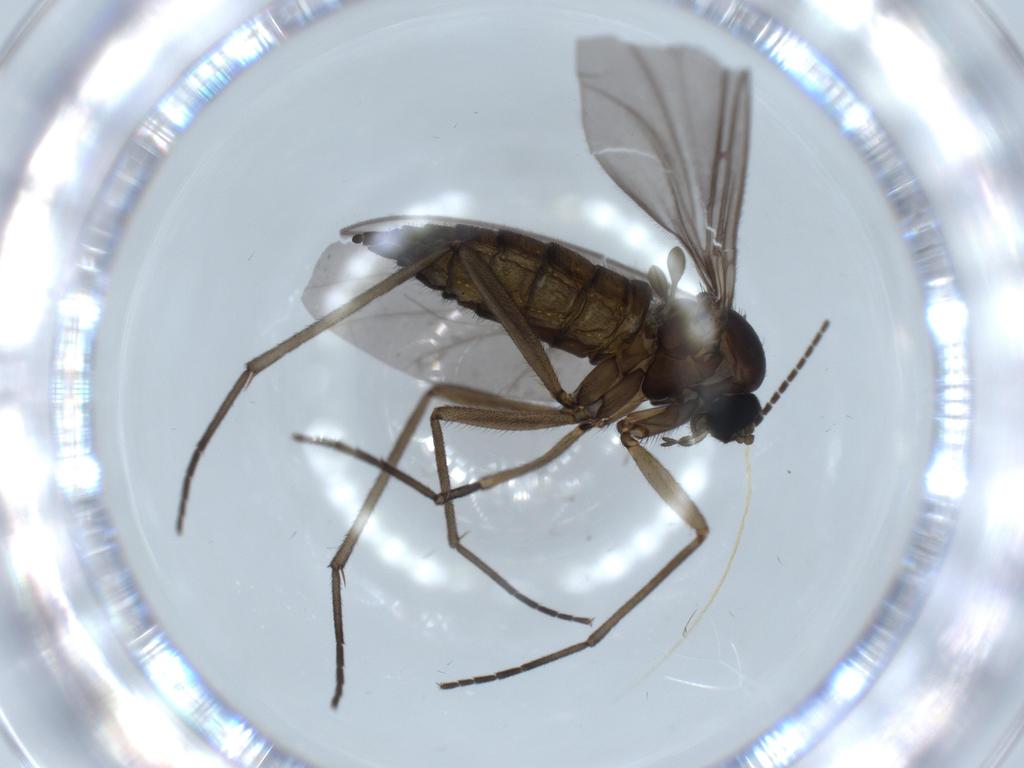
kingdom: Animalia
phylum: Arthropoda
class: Insecta
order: Diptera
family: Sciaridae
